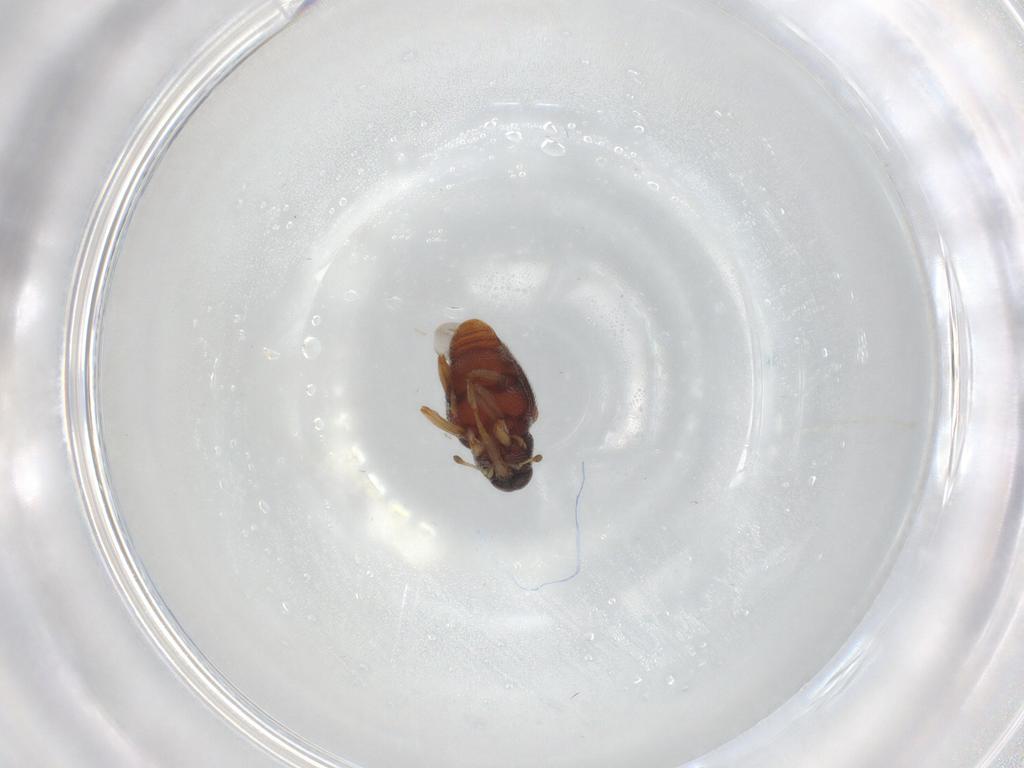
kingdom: Animalia
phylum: Arthropoda
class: Insecta
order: Coleoptera
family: Curculionidae
